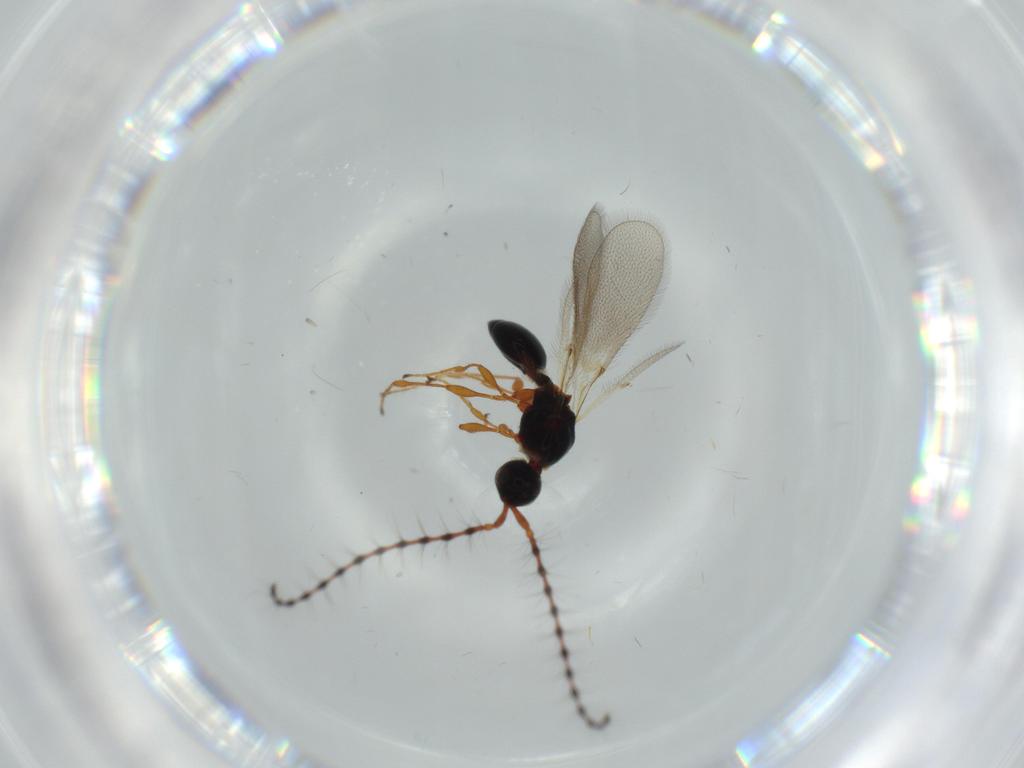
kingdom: Animalia
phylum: Arthropoda
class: Insecta
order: Hymenoptera
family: Diapriidae
